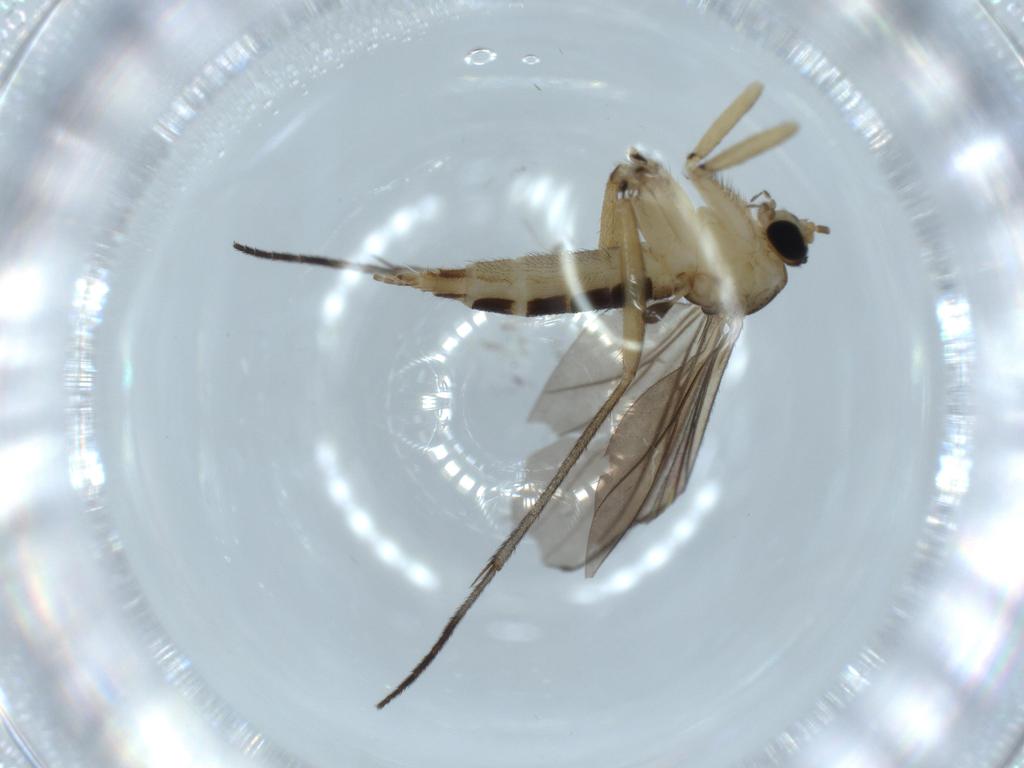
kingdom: Animalia
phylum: Arthropoda
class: Insecta
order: Diptera
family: Sciaridae
